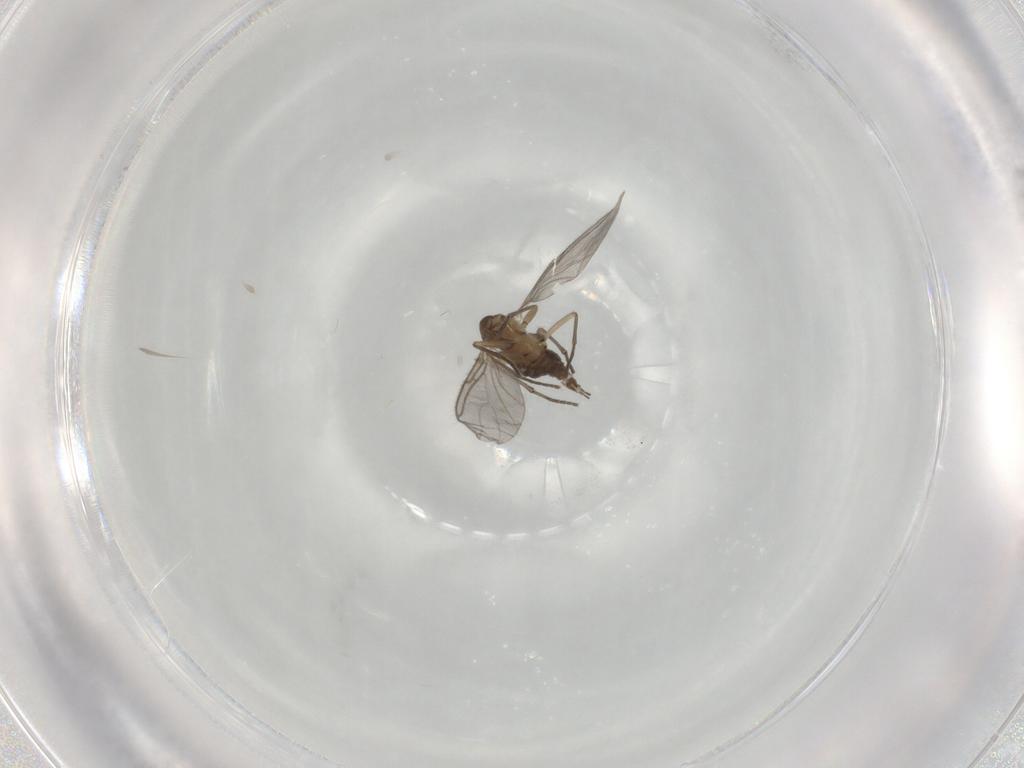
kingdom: Animalia
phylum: Arthropoda
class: Insecta
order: Diptera
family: Sciaridae
